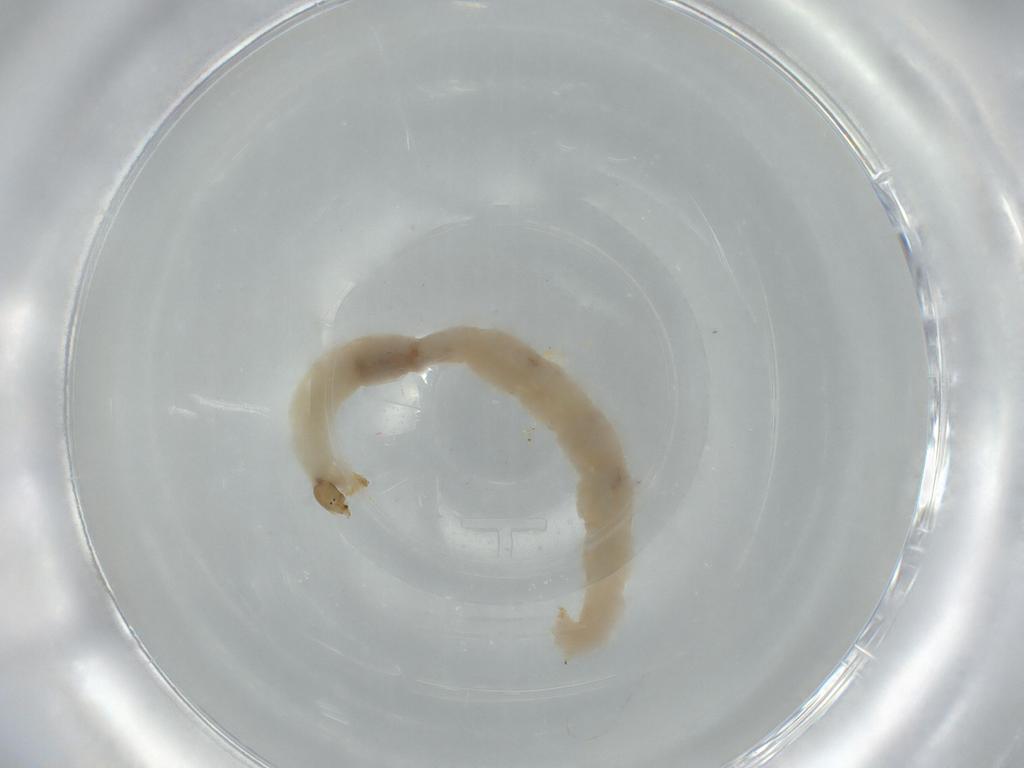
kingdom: Animalia
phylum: Arthropoda
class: Insecta
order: Diptera
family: Chironomidae
